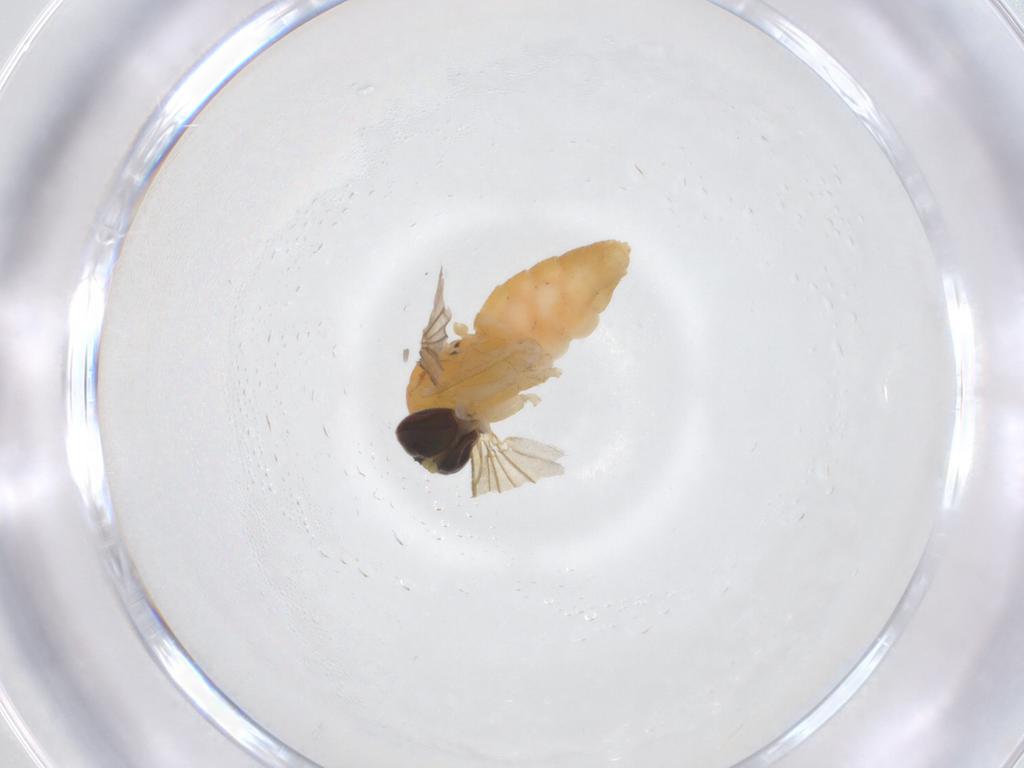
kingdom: Animalia
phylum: Arthropoda
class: Insecta
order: Diptera
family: Dolichopodidae
